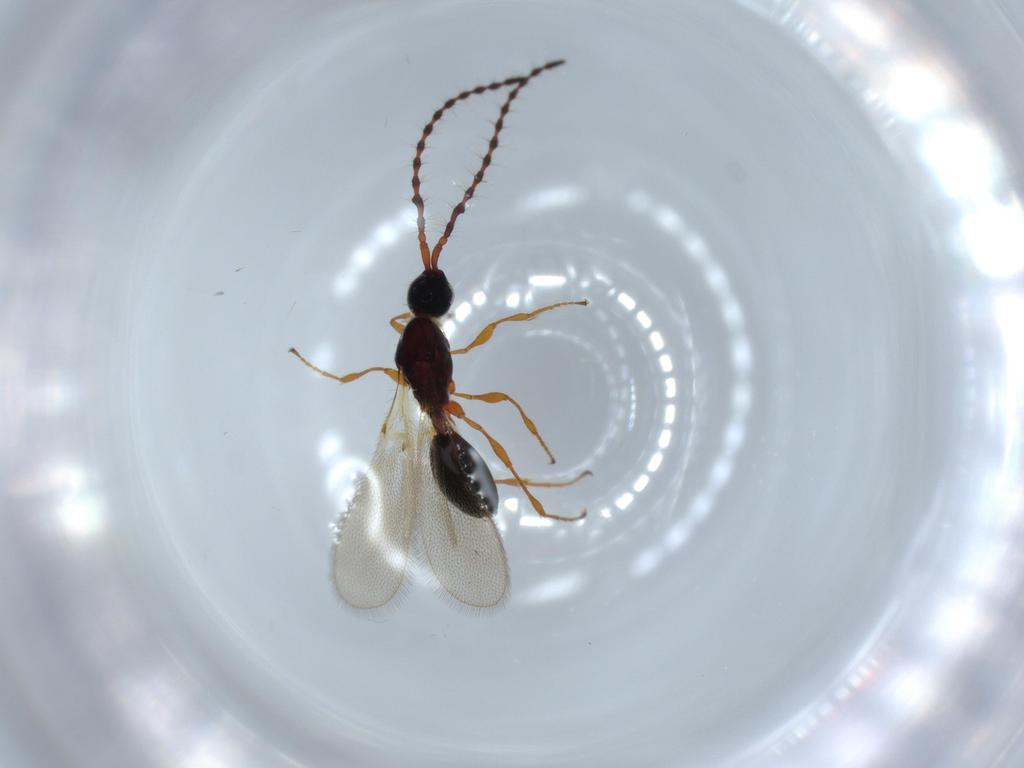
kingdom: Animalia
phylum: Arthropoda
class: Insecta
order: Hymenoptera
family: Diapriidae
